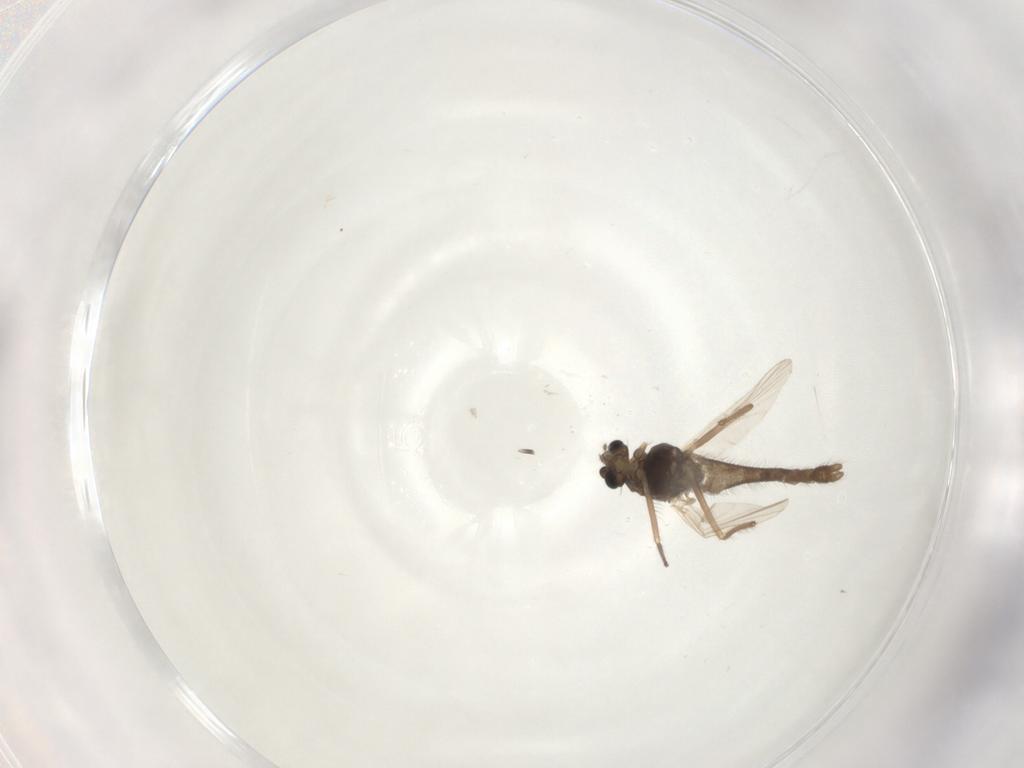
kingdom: Animalia
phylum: Arthropoda
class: Insecta
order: Diptera
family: Chironomidae
